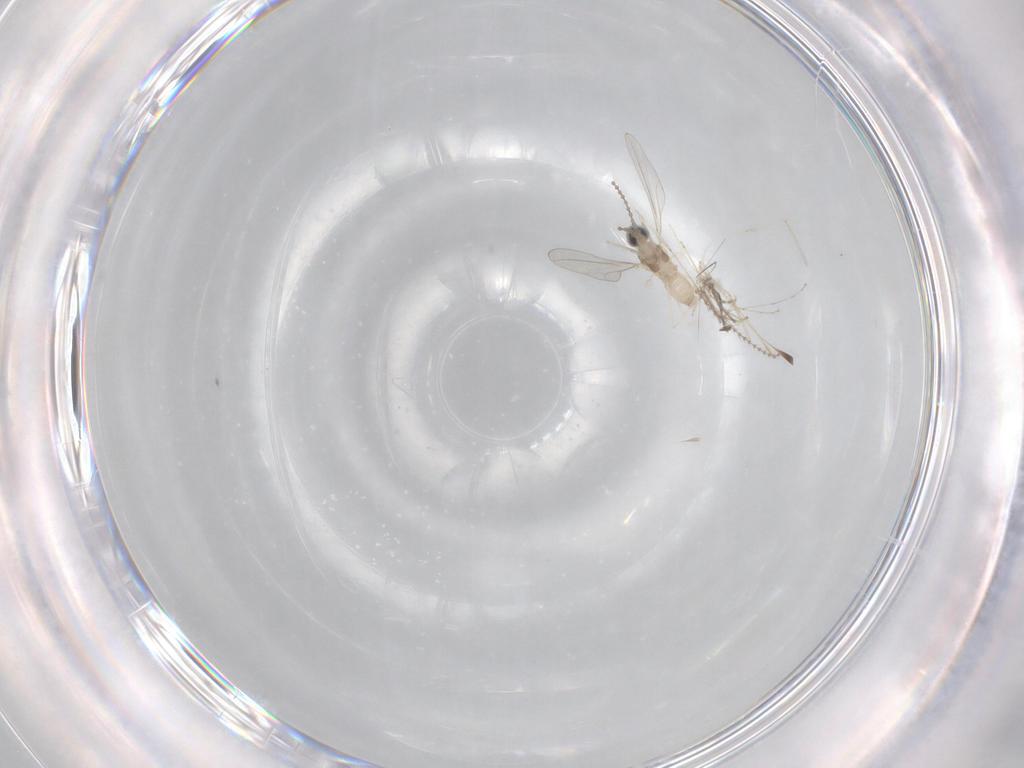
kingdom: Animalia
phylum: Arthropoda
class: Insecta
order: Diptera
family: Cecidomyiidae
